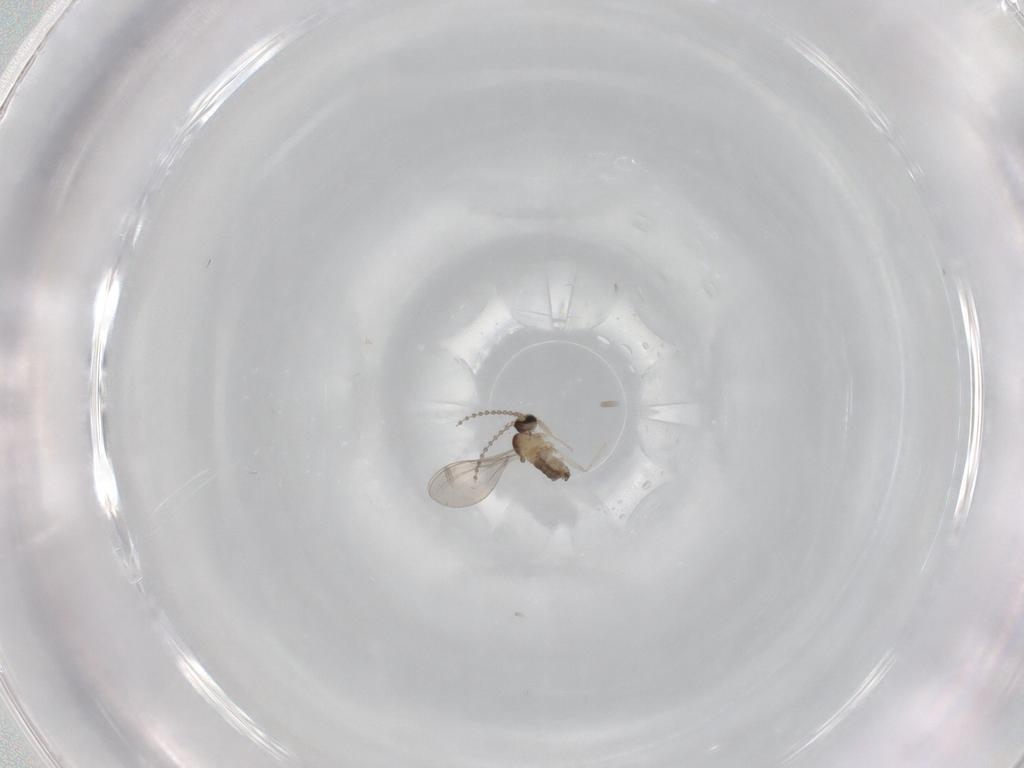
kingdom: Animalia
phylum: Arthropoda
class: Insecta
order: Diptera
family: Cecidomyiidae
